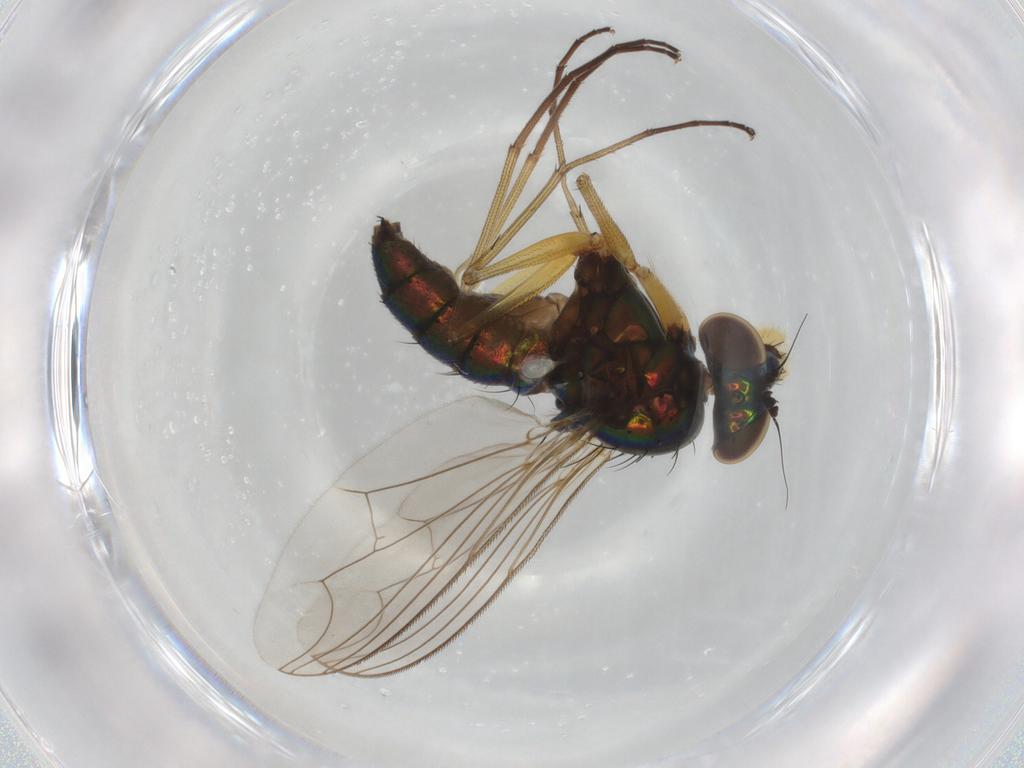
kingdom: Animalia
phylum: Arthropoda
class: Insecta
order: Diptera
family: Dolichopodidae
